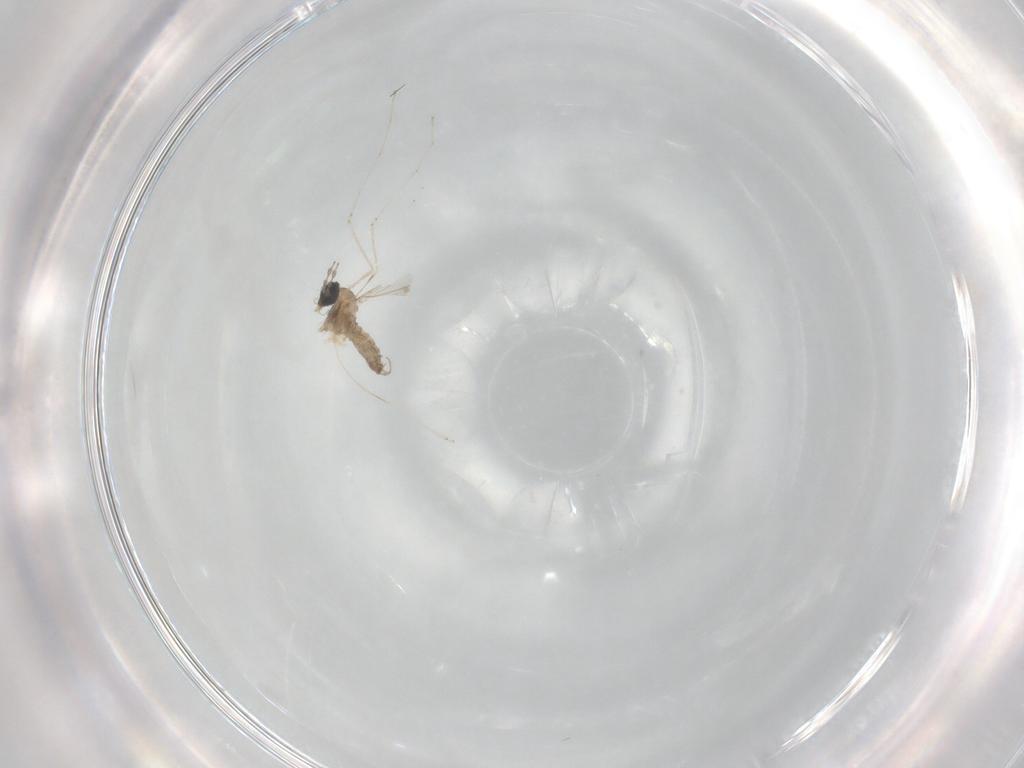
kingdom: Animalia
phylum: Arthropoda
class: Insecta
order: Diptera
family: Cecidomyiidae
